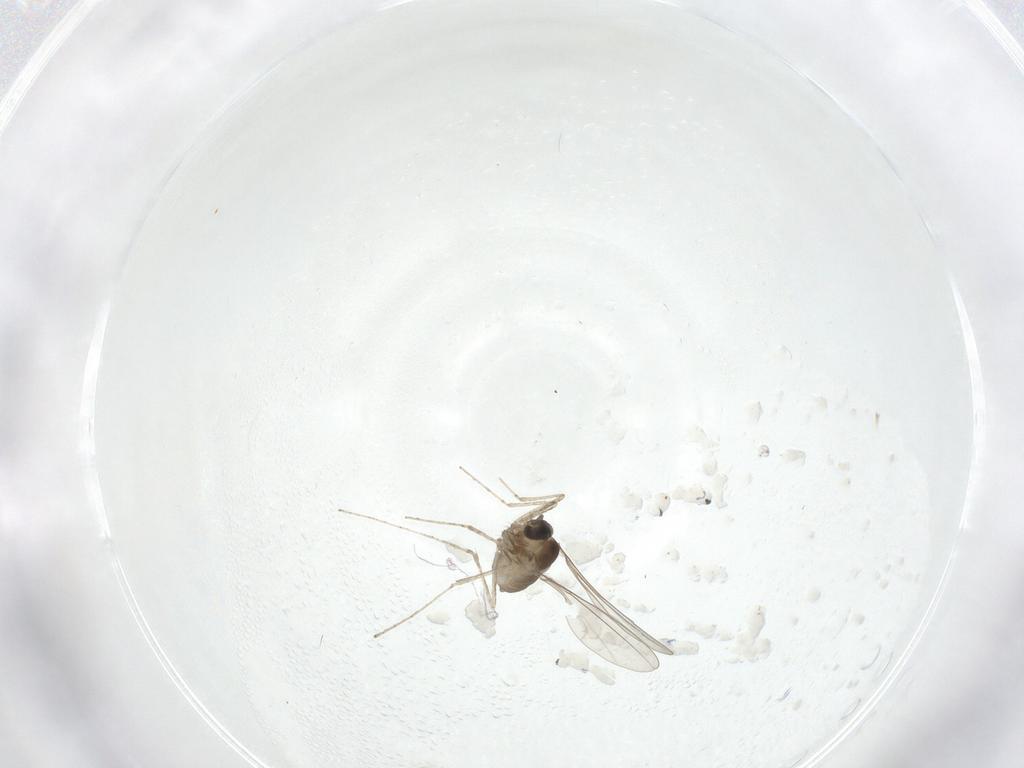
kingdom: Animalia
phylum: Arthropoda
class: Insecta
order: Diptera
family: Cecidomyiidae
